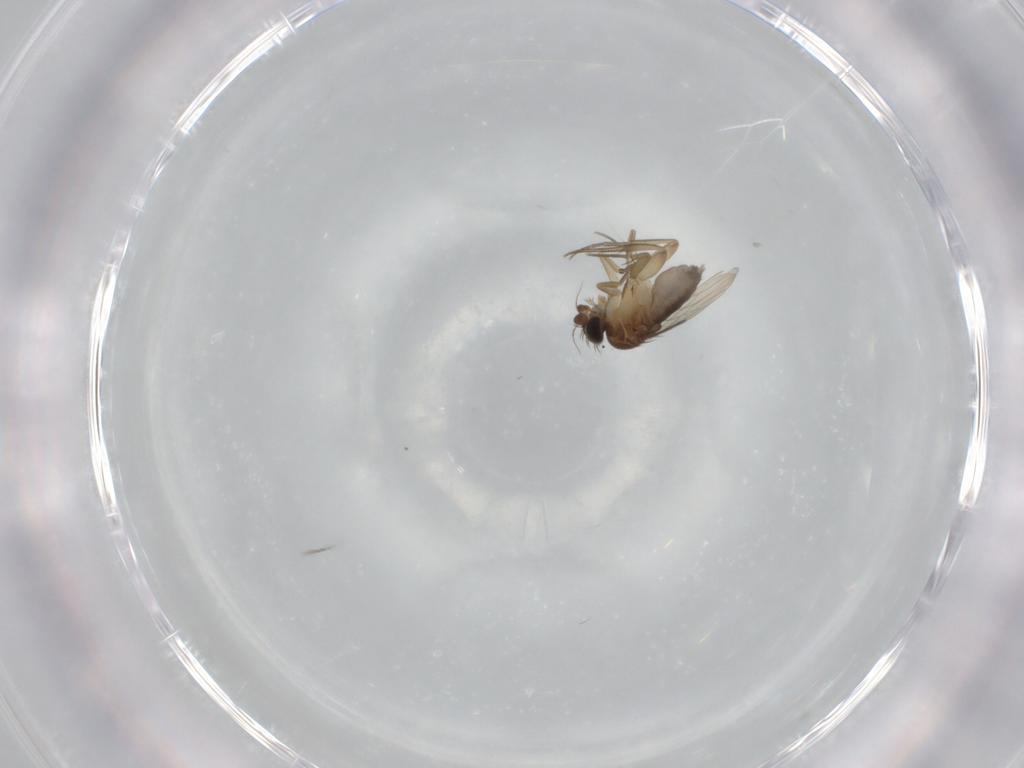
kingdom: Animalia
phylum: Arthropoda
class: Insecta
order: Diptera
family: Phoridae
